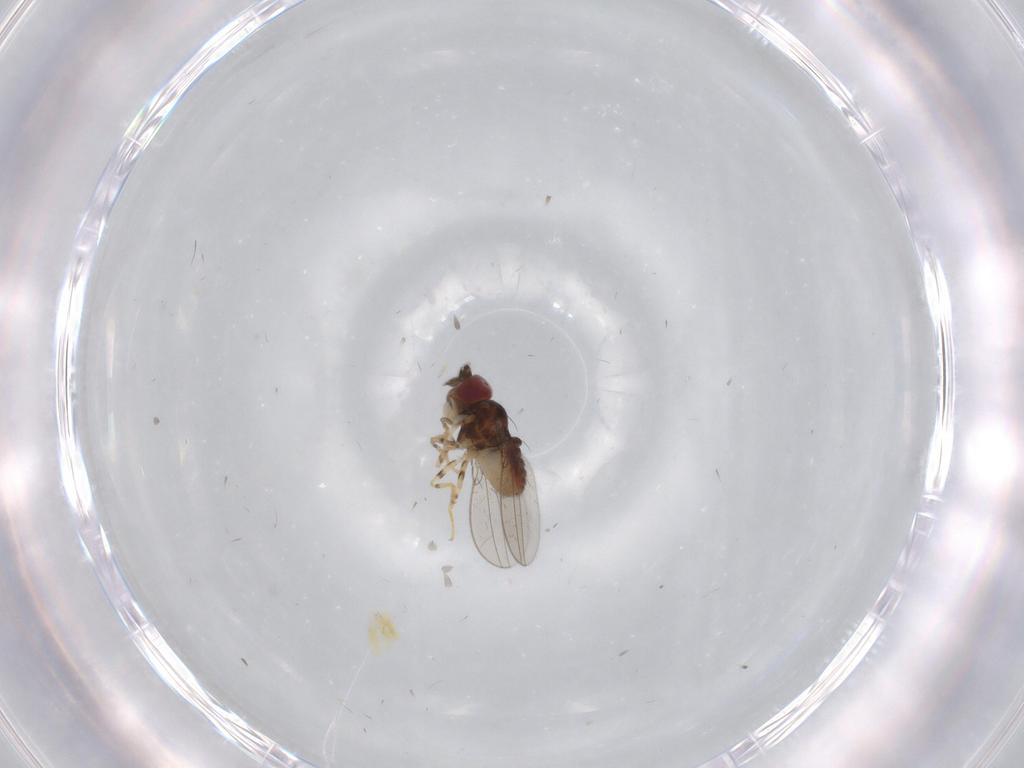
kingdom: Animalia
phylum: Arthropoda
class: Insecta
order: Diptera
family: Asteiidae
